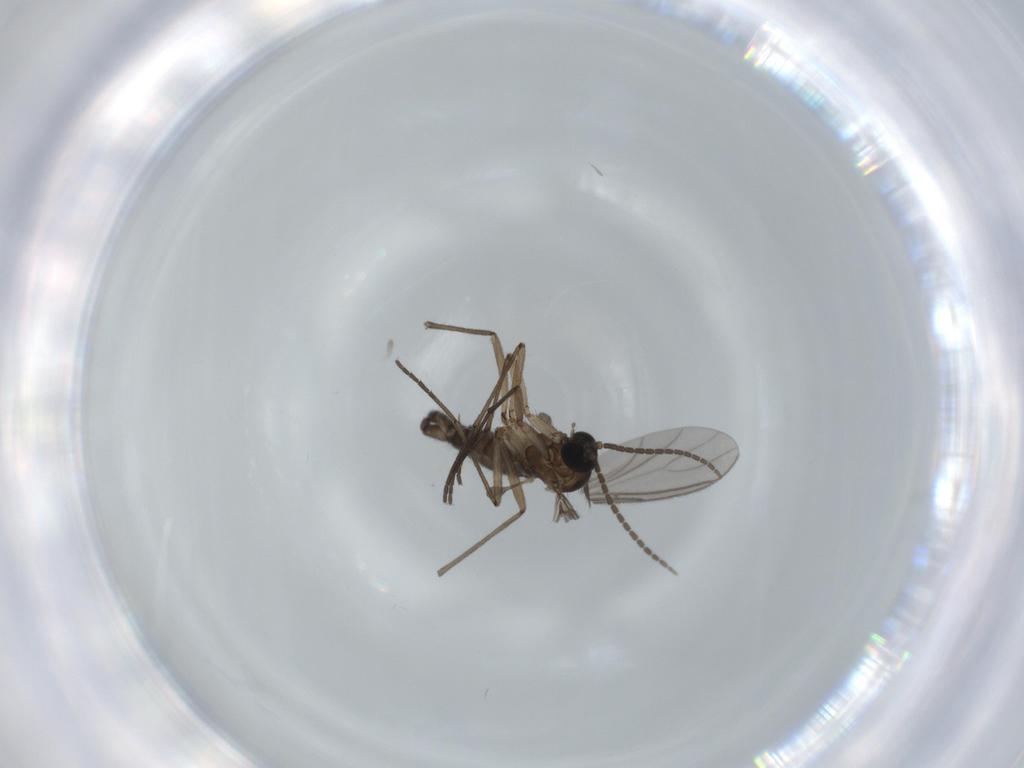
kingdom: Animalia
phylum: Arthropoda
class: Insecta
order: Diptera
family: Sciaridae
